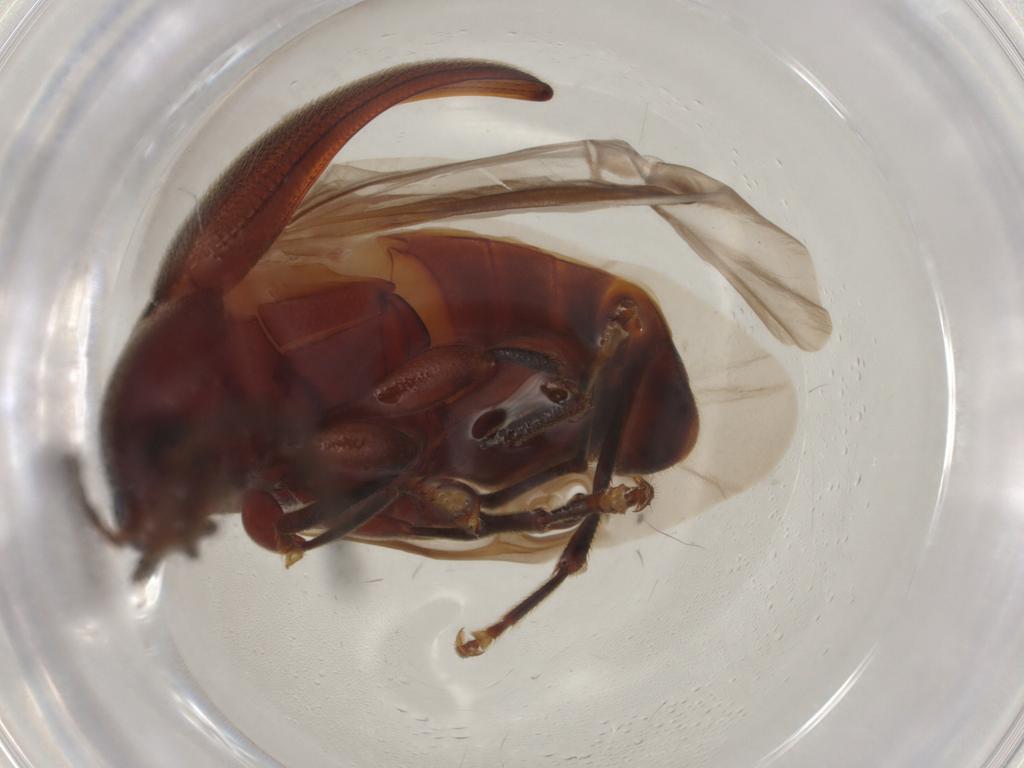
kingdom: Animalia
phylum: Arthropoda
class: Insecta
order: Coleoptera
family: Tenebrionidae
